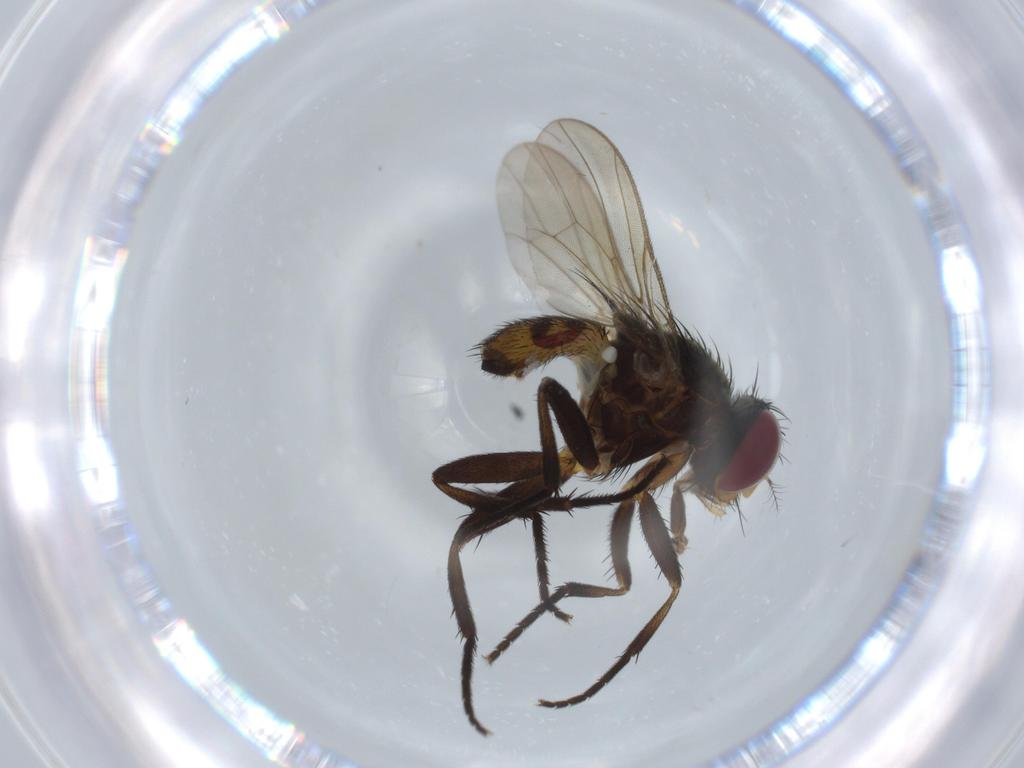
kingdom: Animalia
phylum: Arthropoda
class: Insecta
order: Diptera
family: Anthomyiidae
